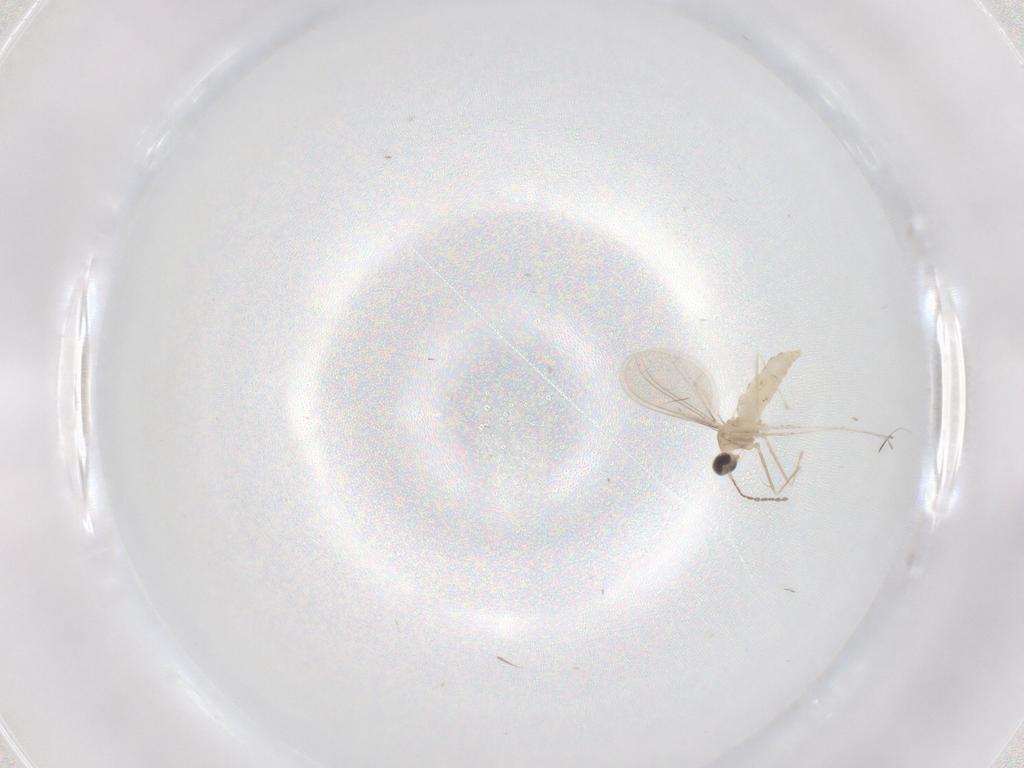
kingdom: Animalia
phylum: Arthropoda
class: Insecta
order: Diptera
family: Cecidomyiidae
